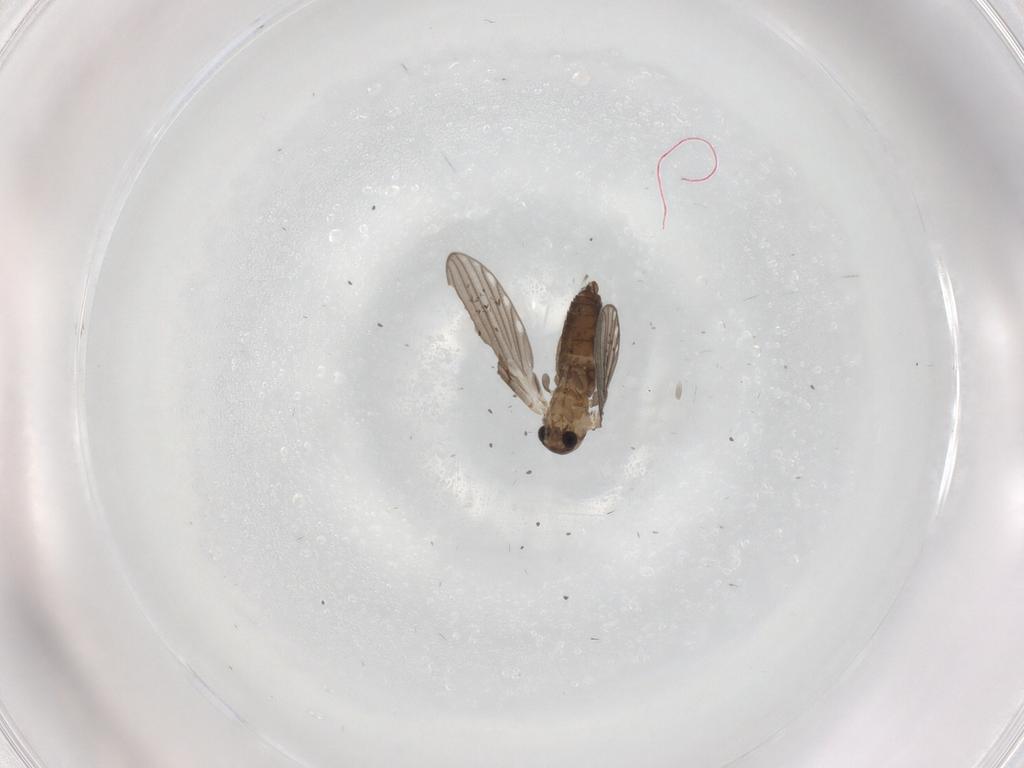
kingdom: Animalia
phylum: Arthropoda
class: Insecta
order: Diptera
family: Psychodidae
